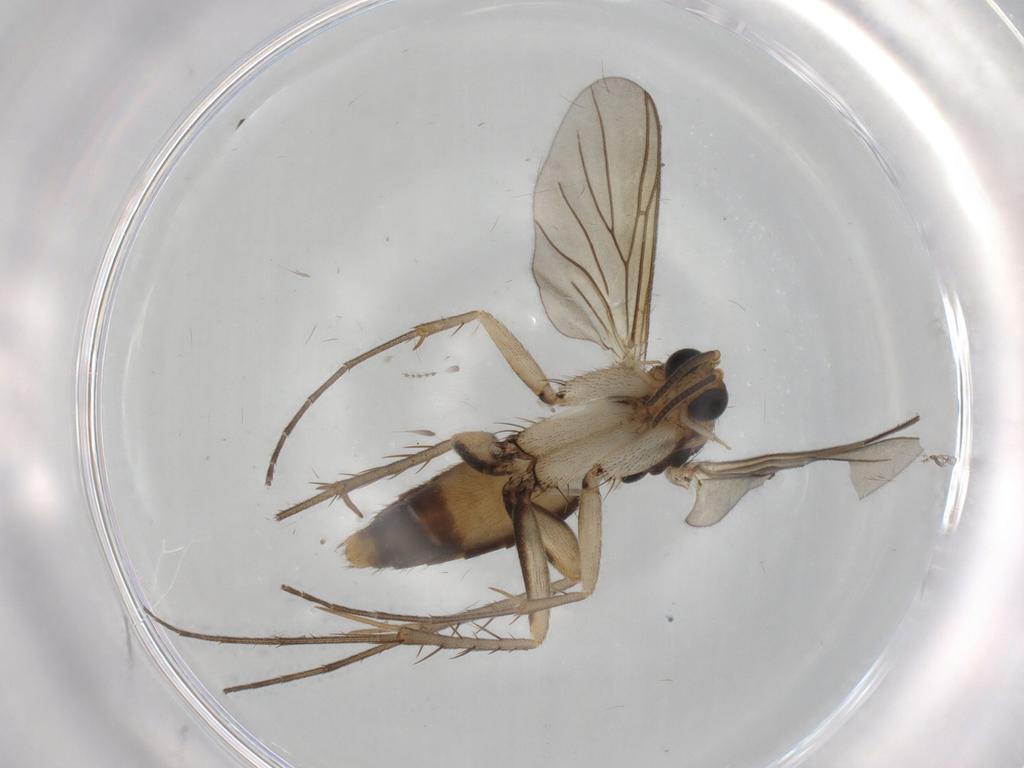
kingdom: Animalia
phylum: Arthropoda
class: Insecta
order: Diptera
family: Mycetophilidae
